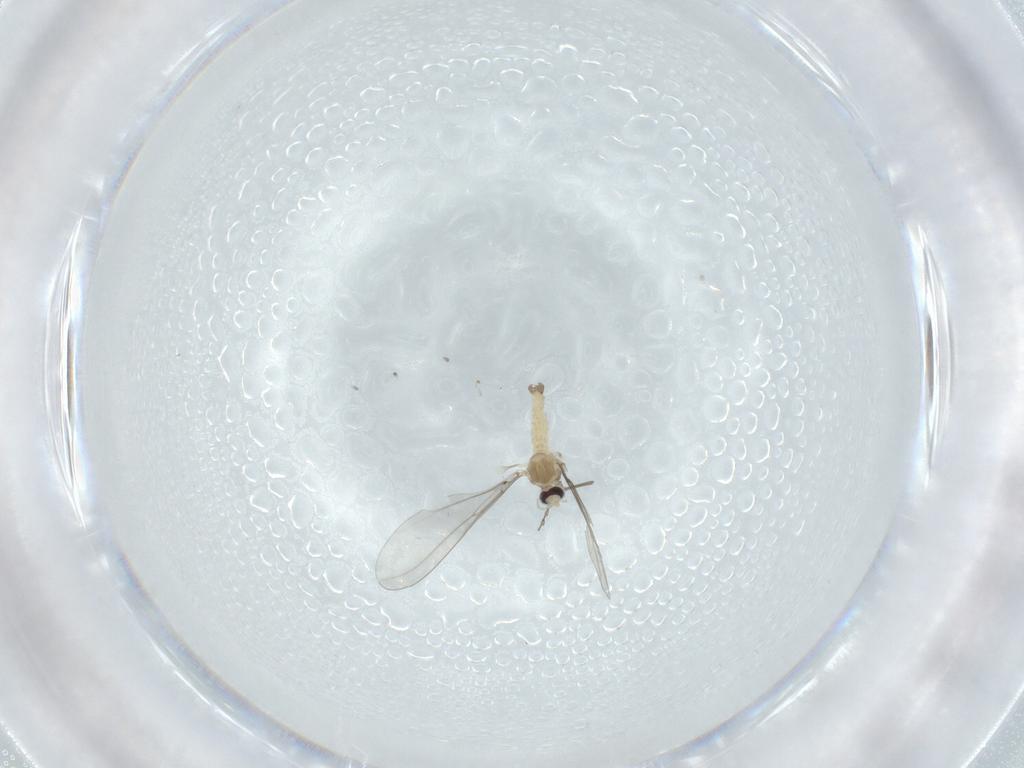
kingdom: Animalia
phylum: Arthropoda
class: Insecta
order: Diptera
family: Cecidomyiidae
